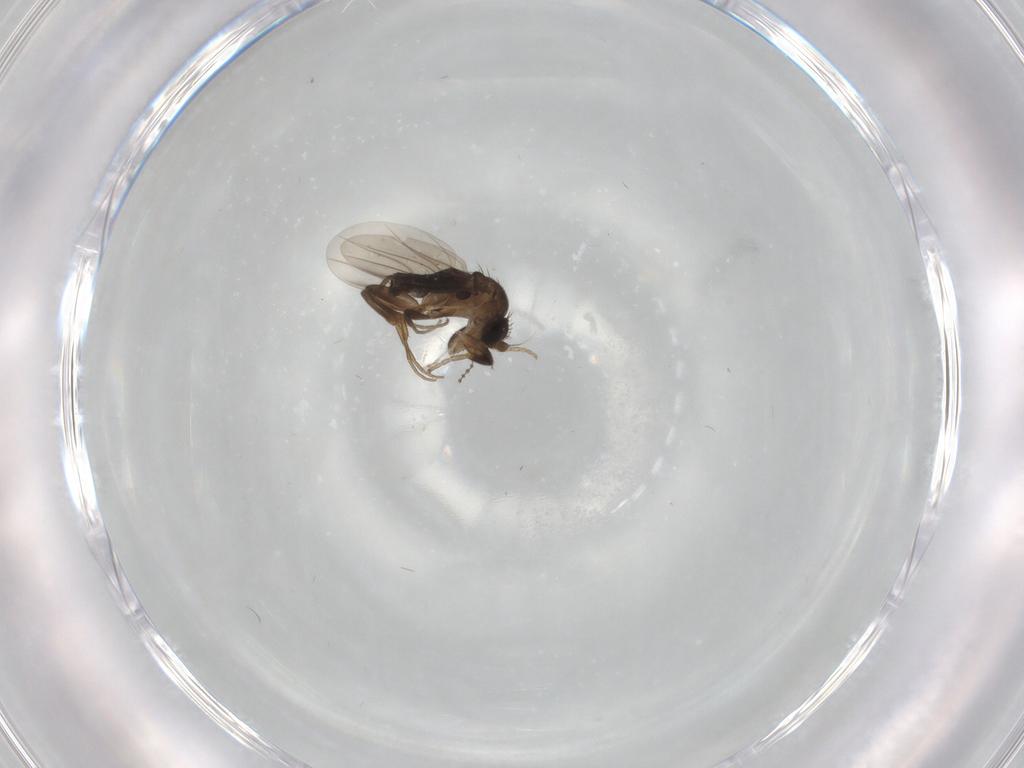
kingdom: Animalia
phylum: Arthropoda
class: Insecta
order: Diptera
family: Phoridae
